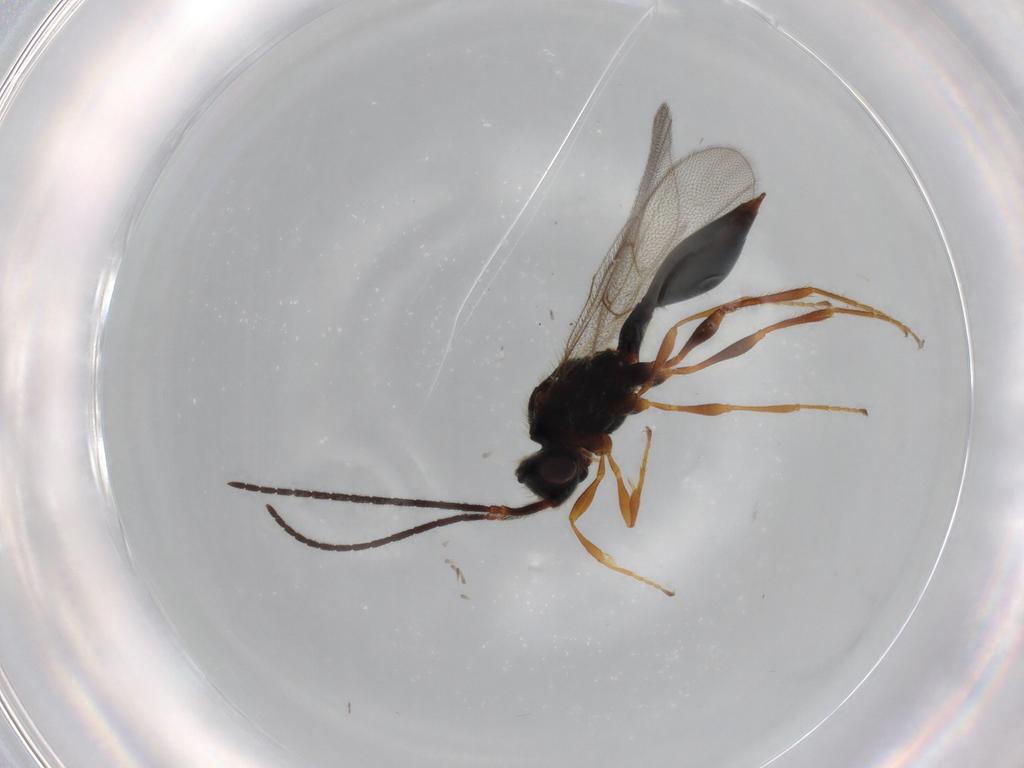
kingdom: Animalia
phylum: Arthropoda
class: Insecta
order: Hymenoptera
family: Diapriidae
